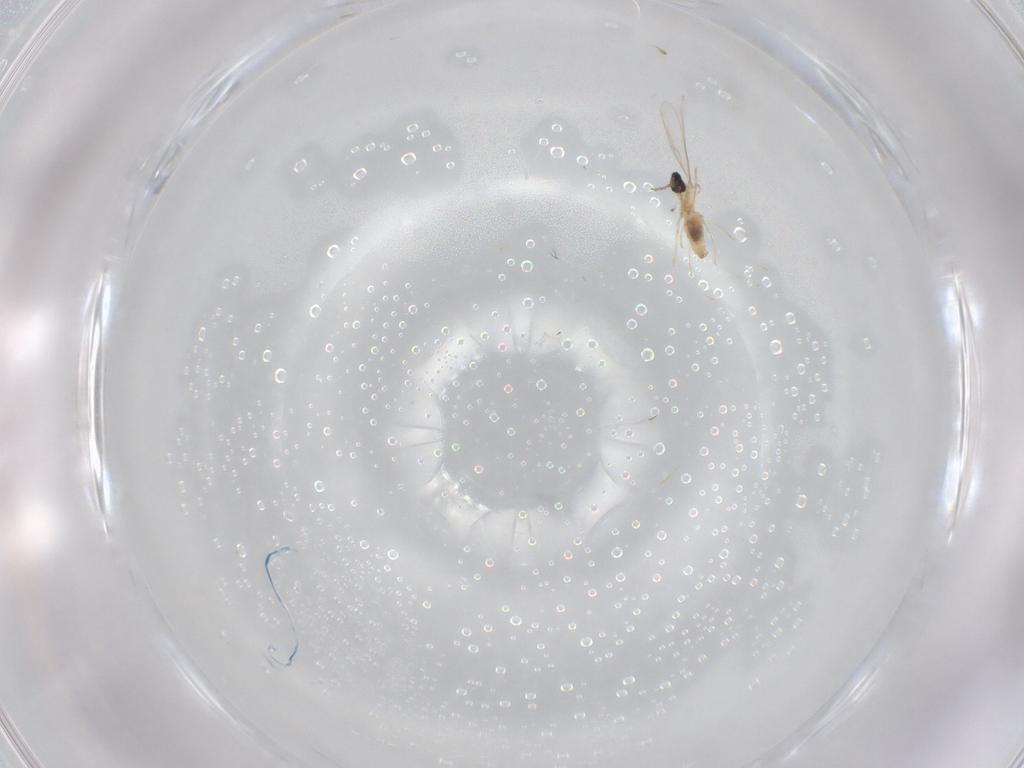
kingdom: Animalia
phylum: Arthropoda
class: Insecta
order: Diptera
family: Cecidomyiidae
